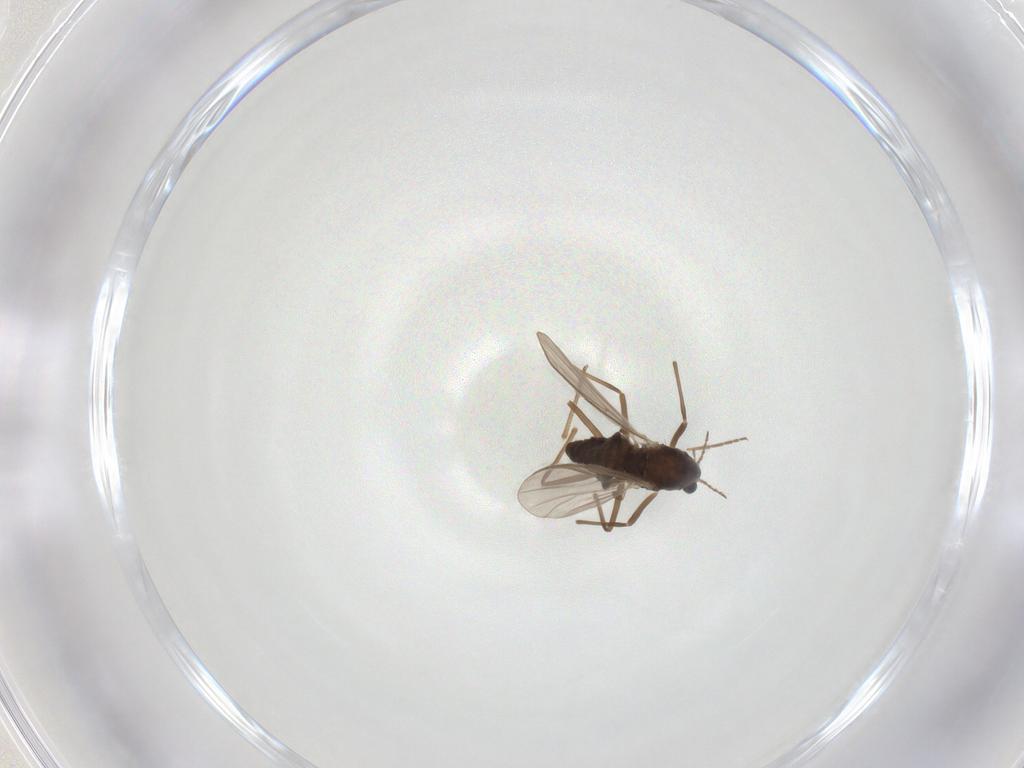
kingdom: Animalia
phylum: Arthropoda
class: Insecta
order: Diptera
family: Chironomidae
